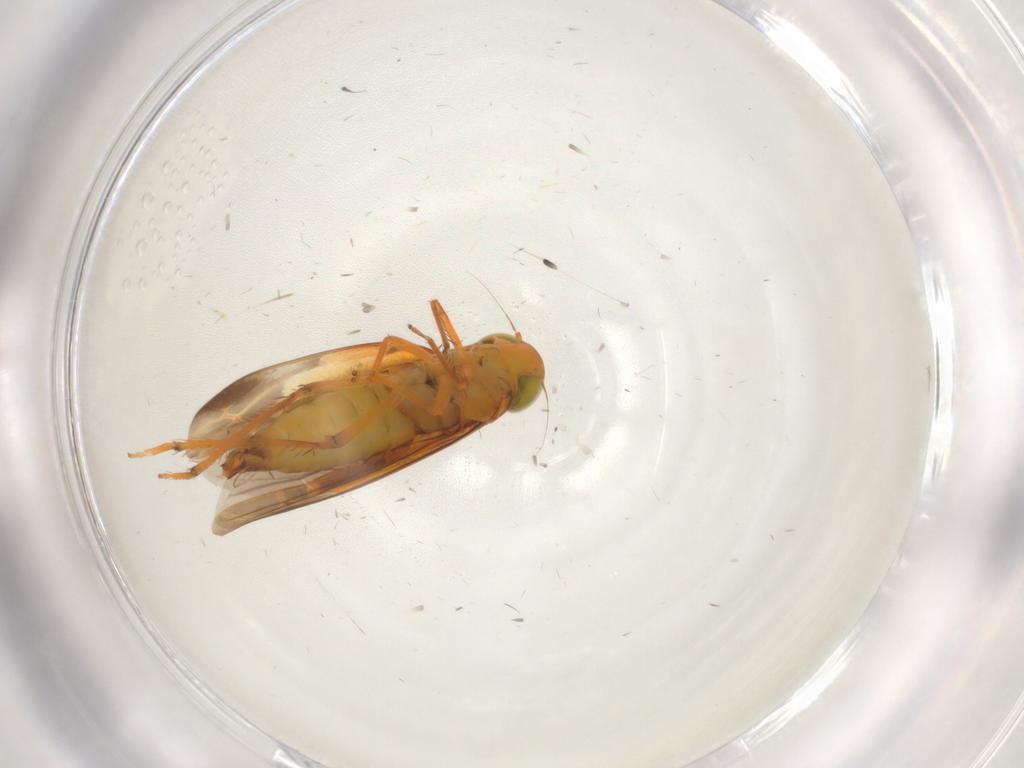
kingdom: Animalia
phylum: Arthropoda
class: Insecta
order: Hemiptera
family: Cicadellidae
